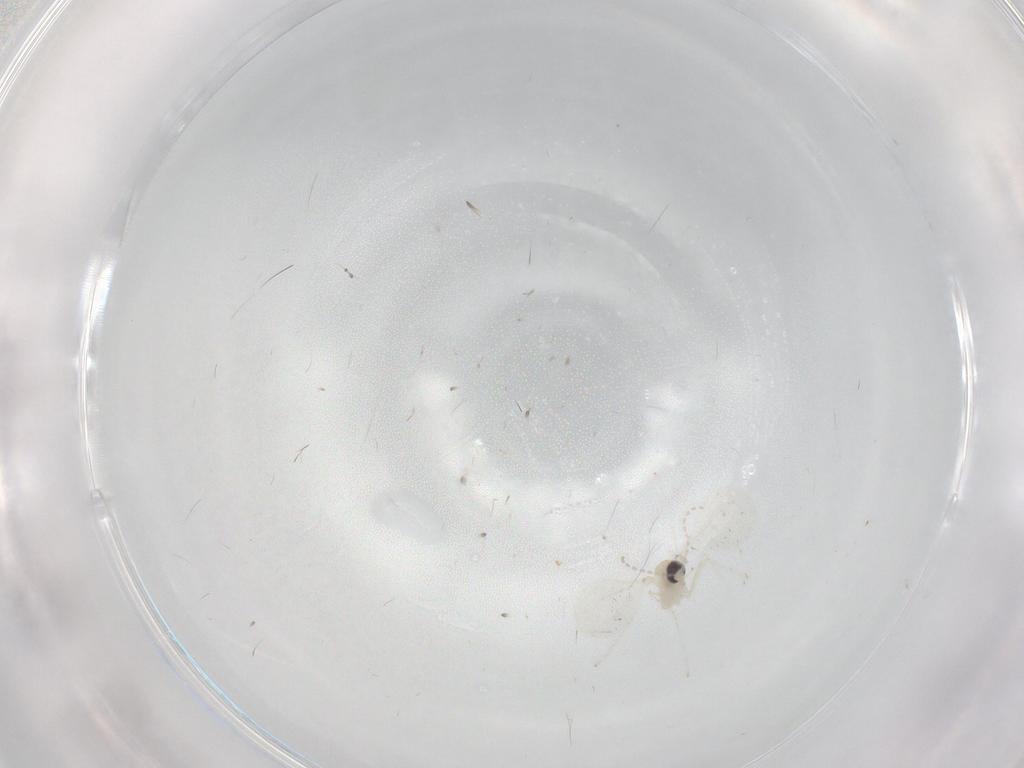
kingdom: Animalia
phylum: Arthropoda
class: Insecta
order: Diptera
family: Cecidomyiidae
